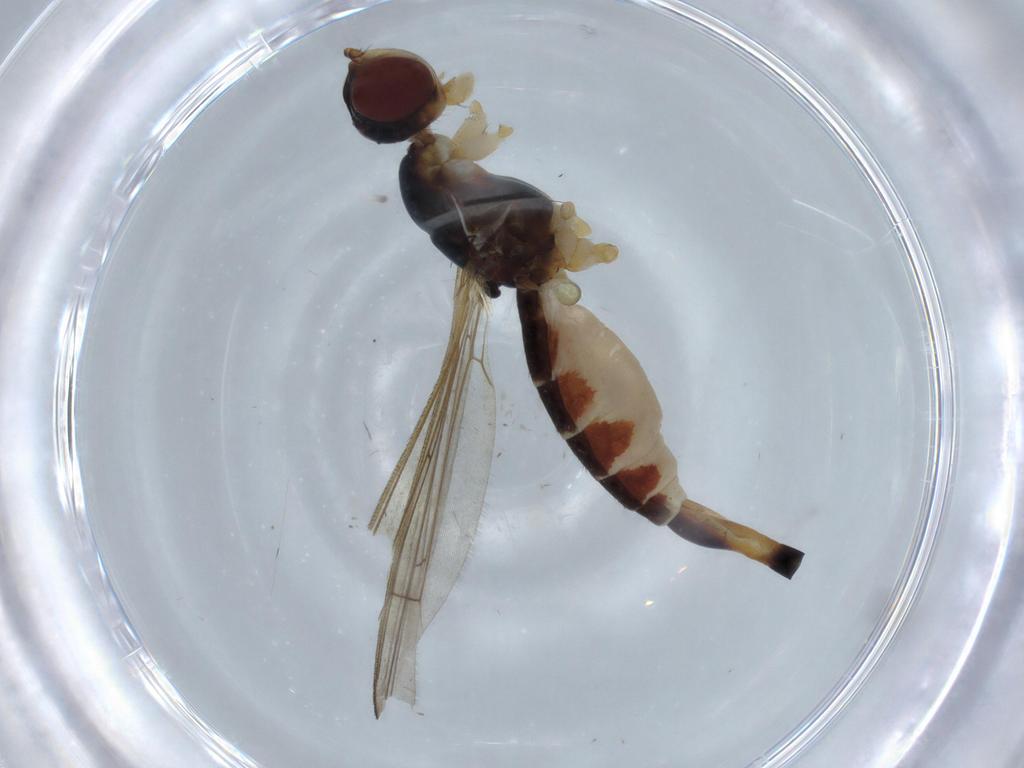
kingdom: Animalia
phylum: Arthropoda
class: Insecta
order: Diptera
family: Micropezidae
